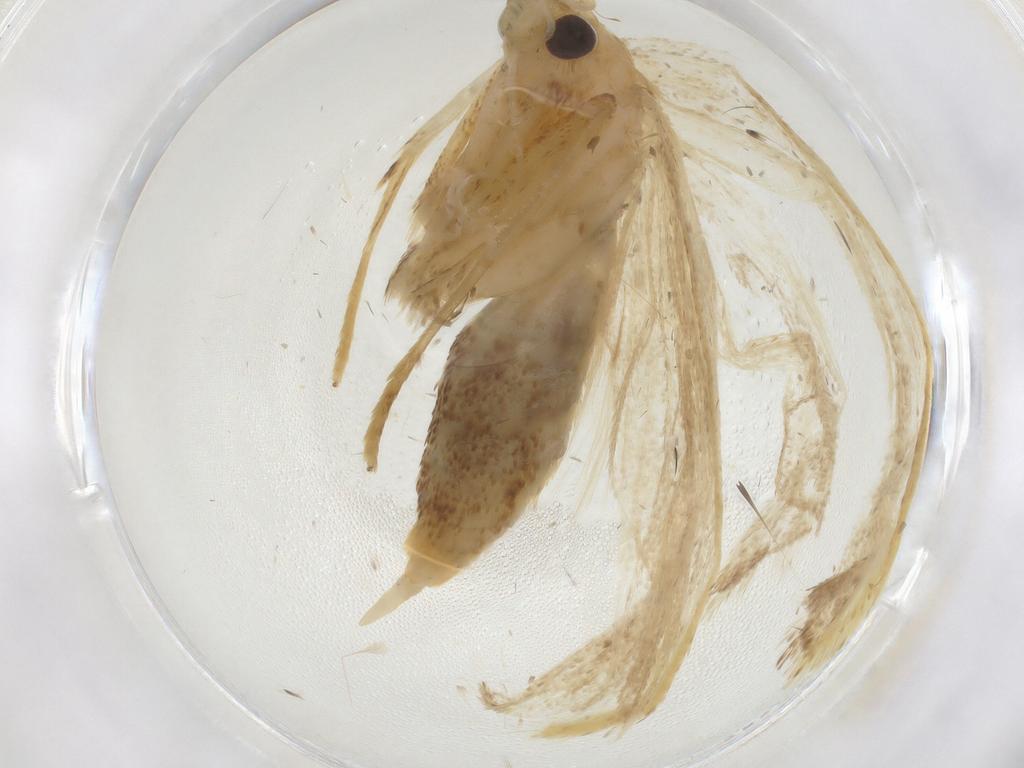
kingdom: Animalia
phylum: Arthropoda
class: Insecta
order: Lepidoptera
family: Lecithoceridae
